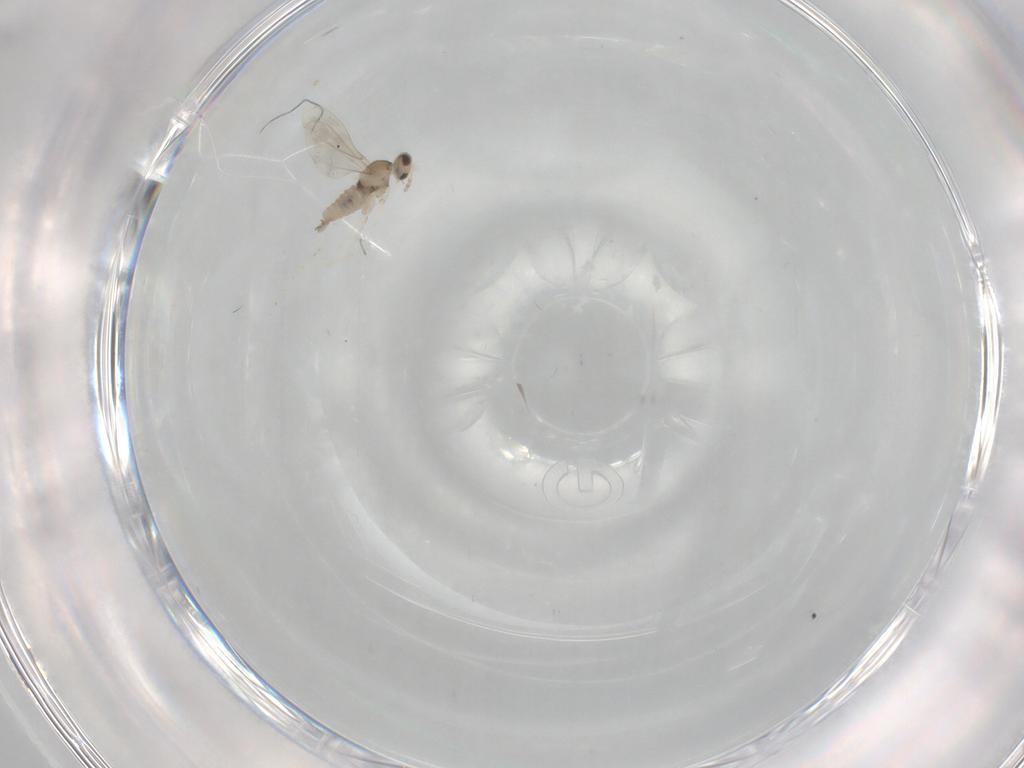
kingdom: Animalia
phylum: Arthropoda
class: Insecta
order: Diptera
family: Cecidomyiidae
